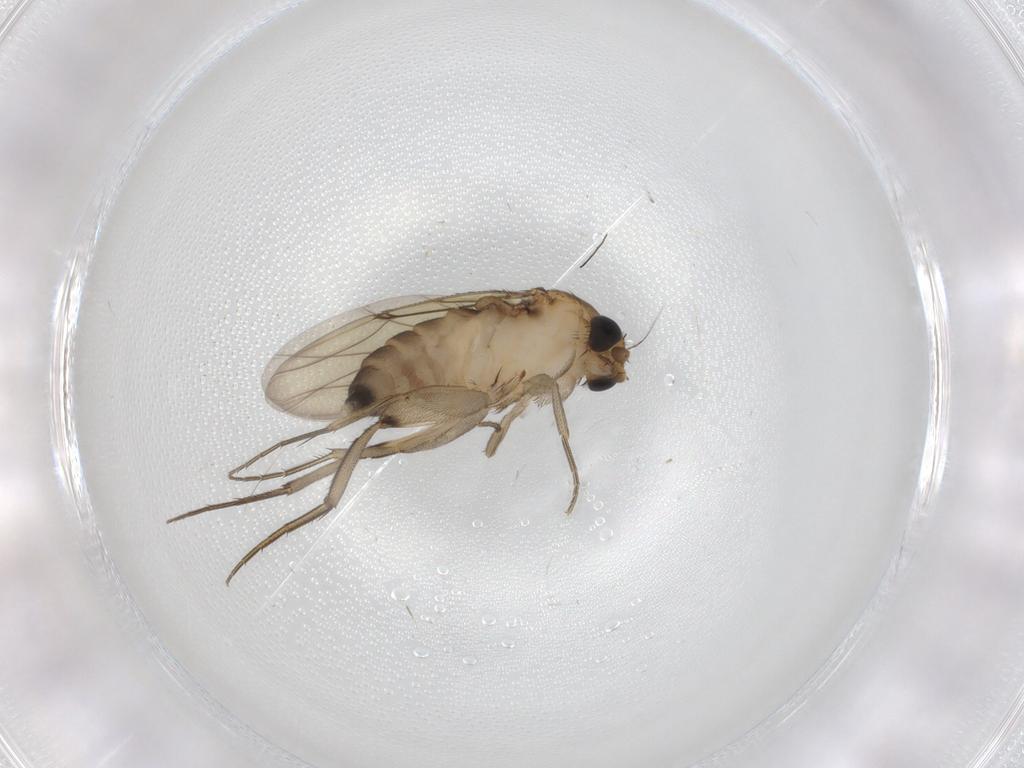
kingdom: Animalia
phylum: Arthropoda
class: Insecta
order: Diptera
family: Phoridae
